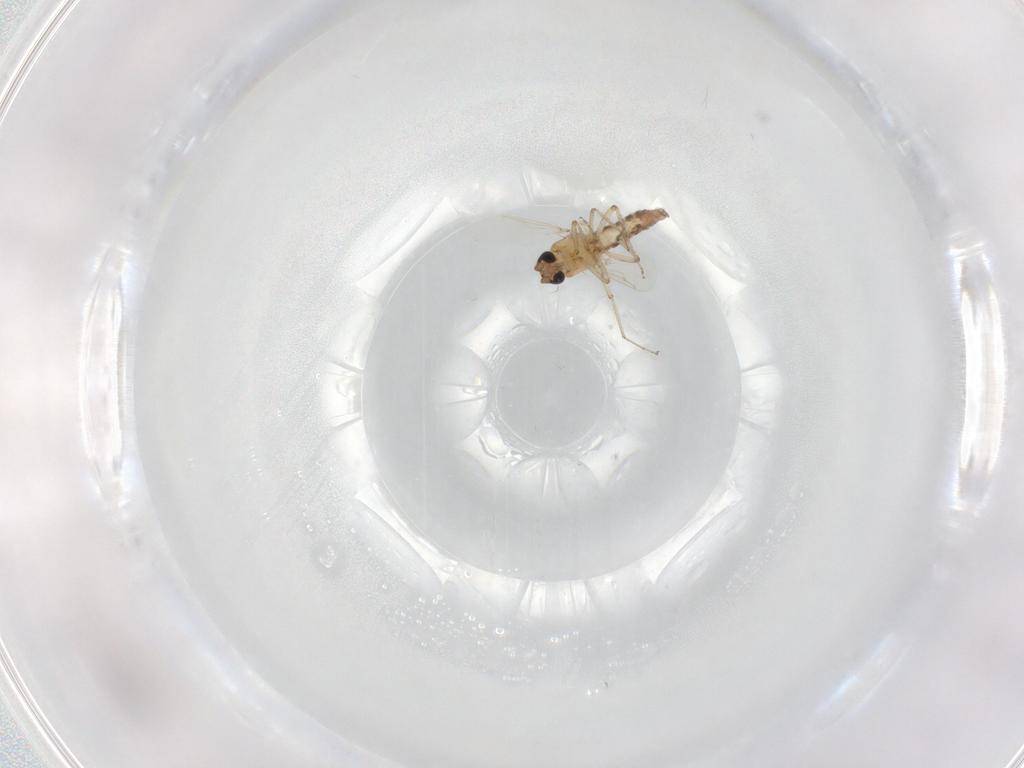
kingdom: Animalia
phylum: Arthropoda
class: Insecta
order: Diptera
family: Ceratopogonidae
